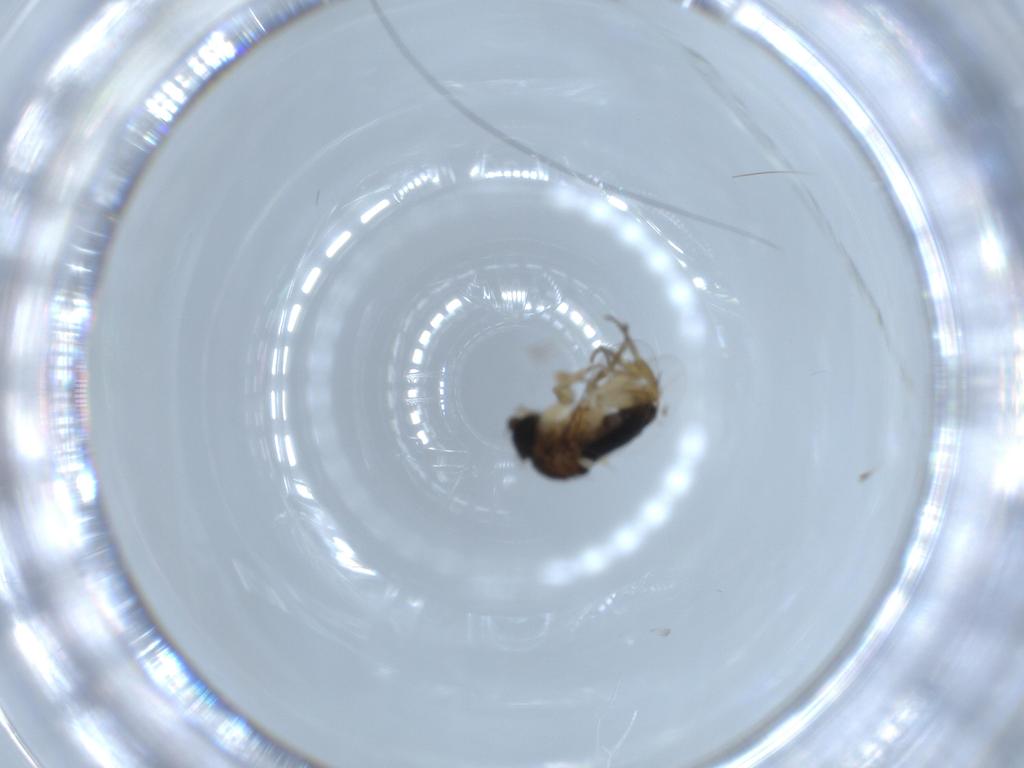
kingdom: Animalia
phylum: Arthropoda
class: Insecta
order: Diptera
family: Phoridae
